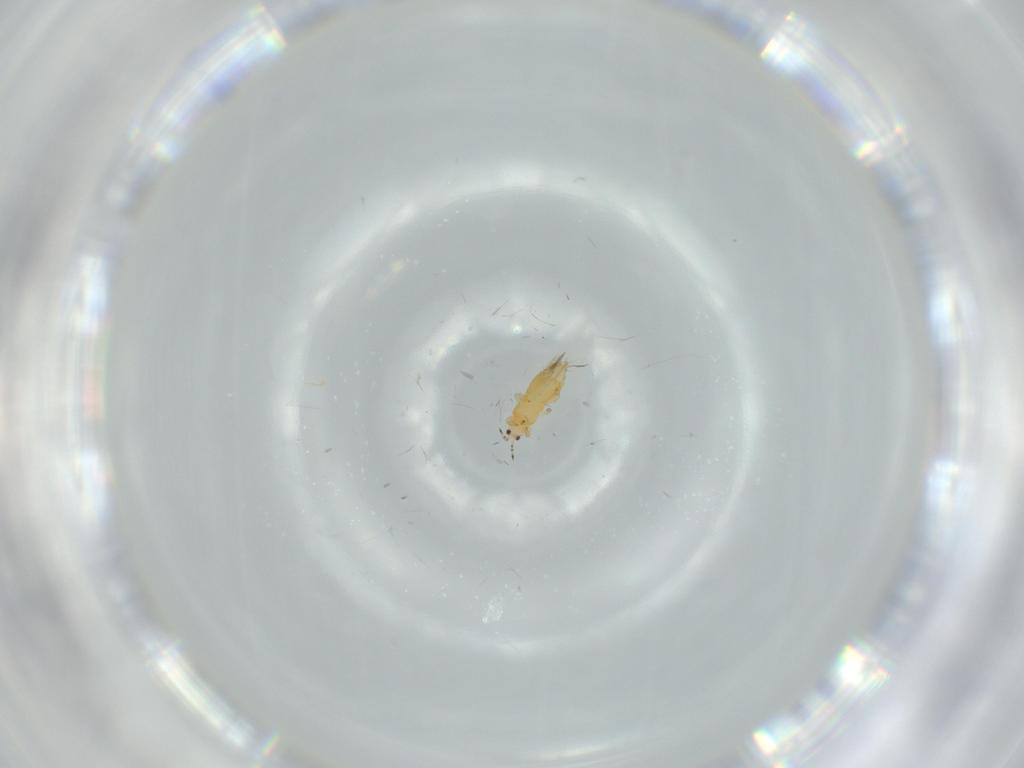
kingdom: Animalia
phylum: Arthropoda
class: Insecta
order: Thysanoptera
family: Thripidae
